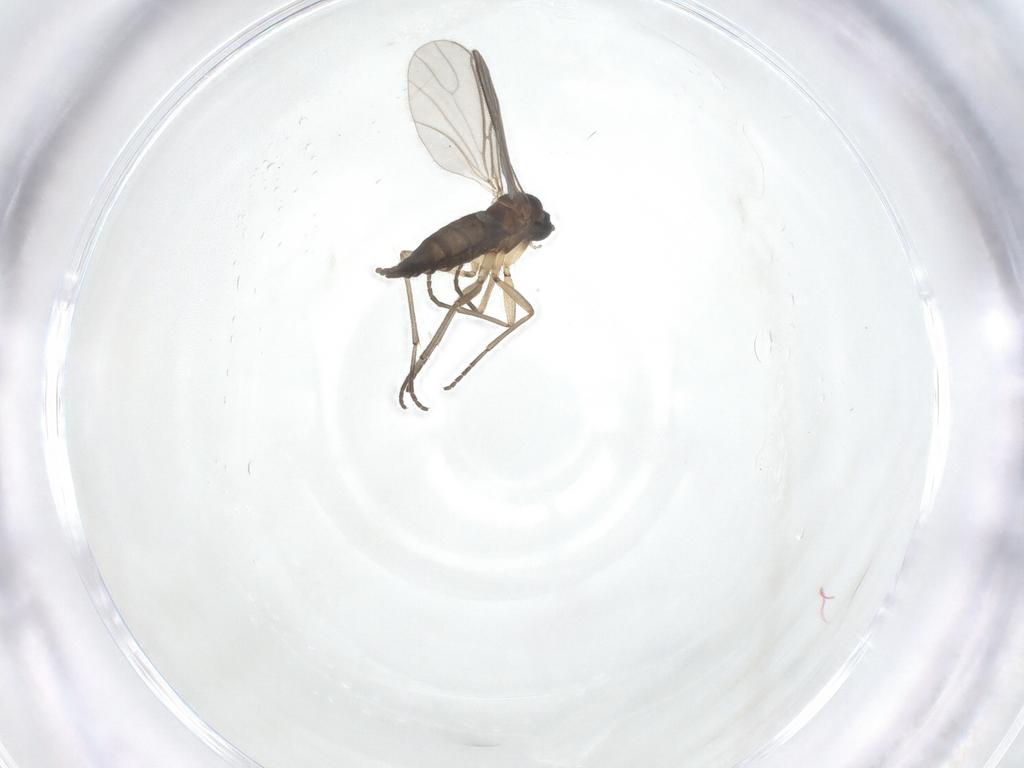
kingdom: Animalia
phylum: Arthropoda
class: Insecta
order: Diptera
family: Sciaridae
